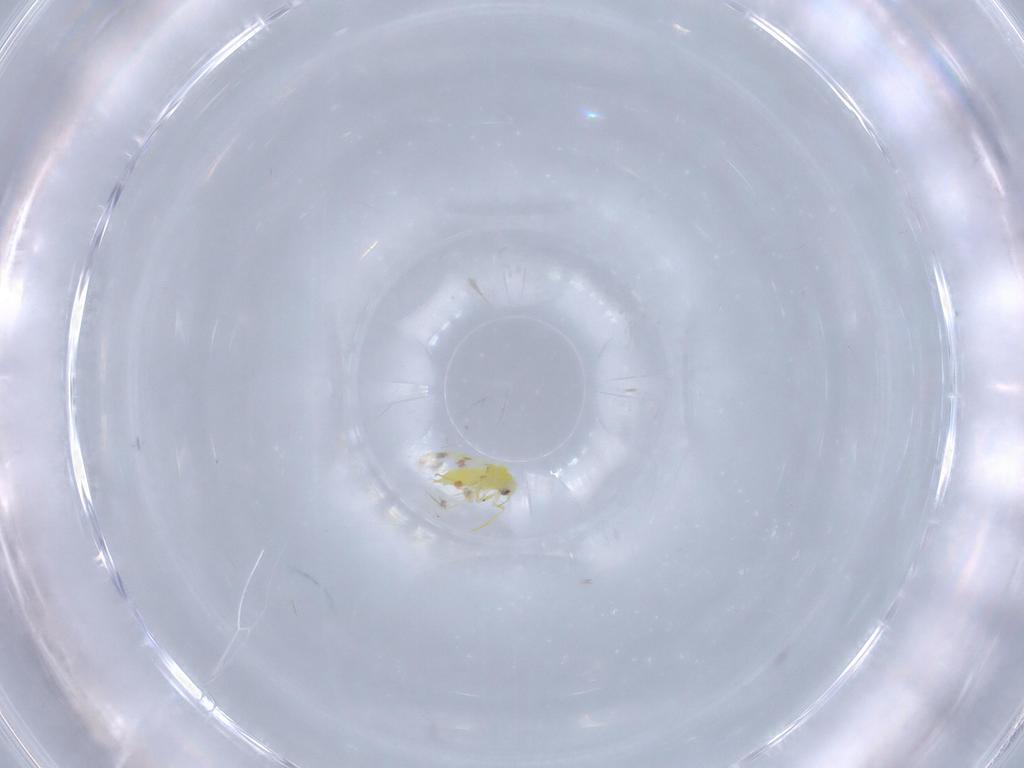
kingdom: Animalia
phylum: Arthropoda
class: Insecta
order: Hemiptera
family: Aleyrodidae
